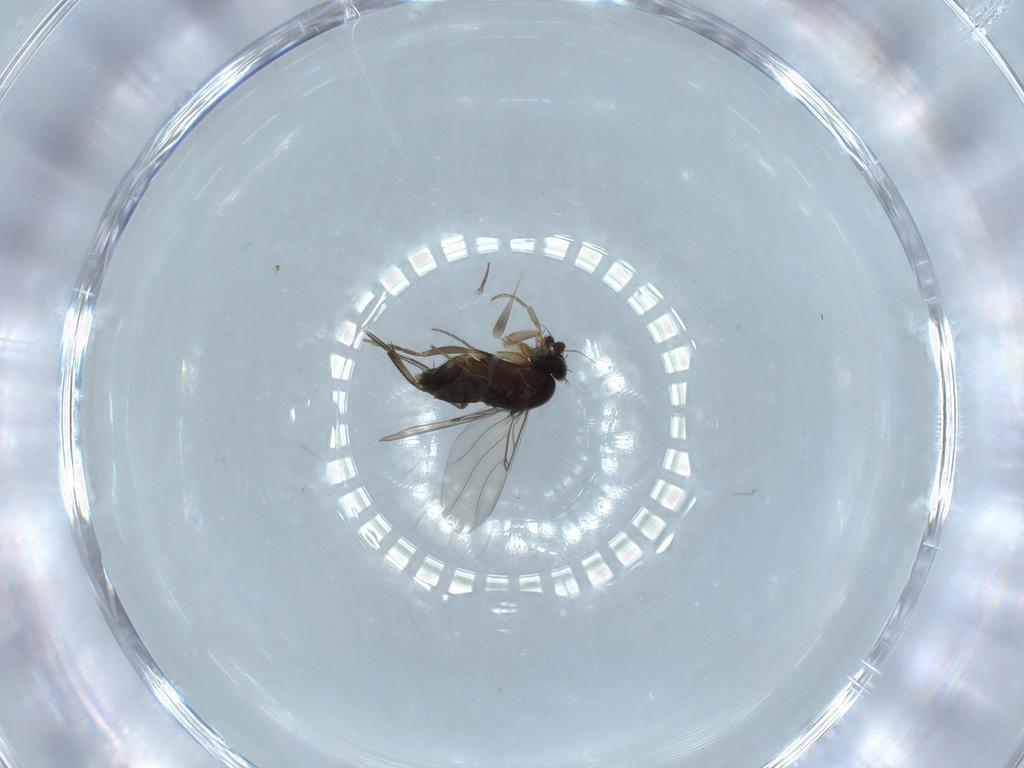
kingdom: Animalia
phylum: Arthropoda
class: Insecta
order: Diptera
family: Phoridae
